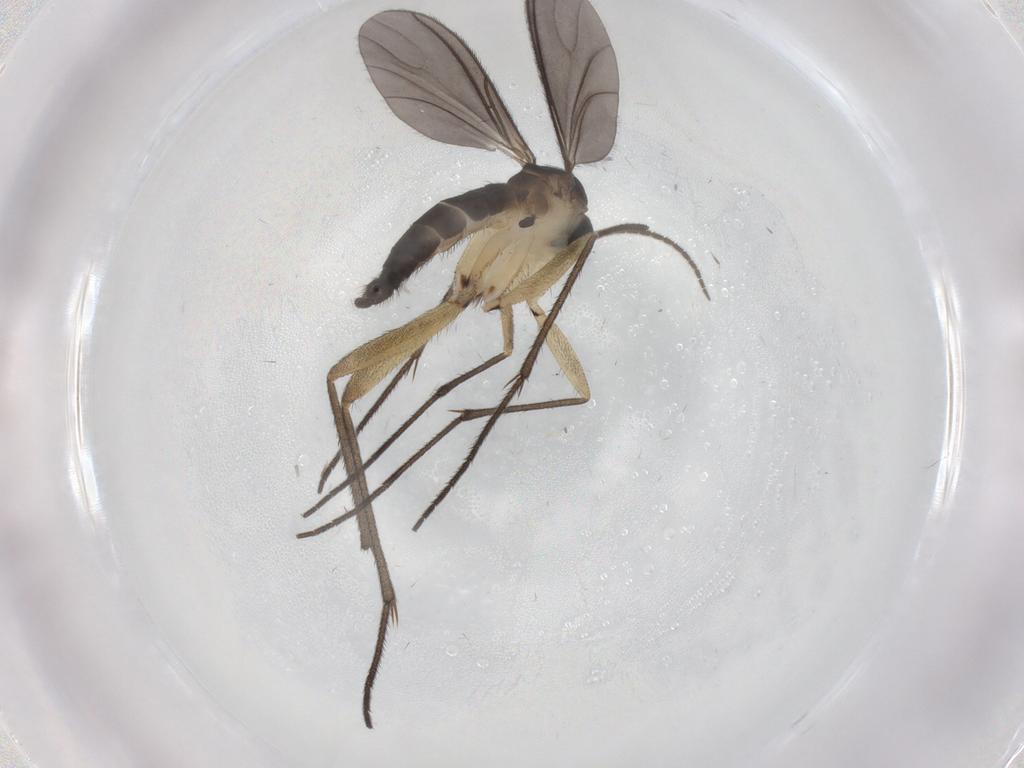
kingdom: Animalia
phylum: Arthropoda
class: Insecta
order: Diptera
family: Sciaridae
